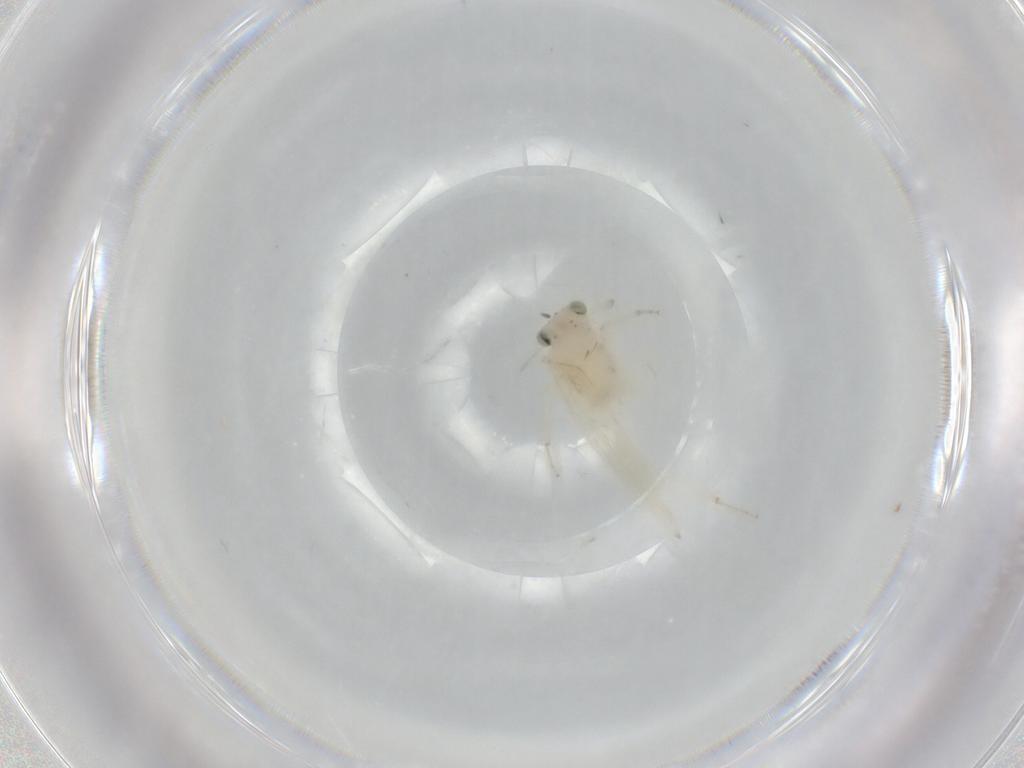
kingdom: Animalia
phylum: Arthropoda
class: Insecta
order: Psocodea
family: Lepidopsocidae
